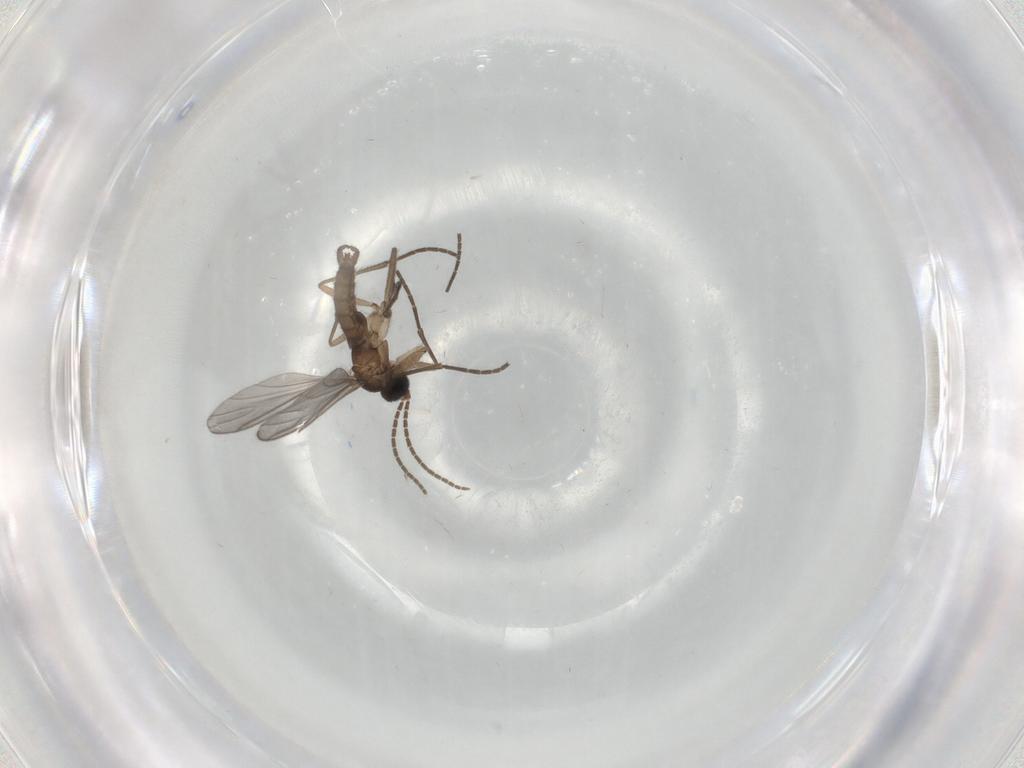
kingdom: Animalia
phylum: Arthropoda
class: Insecta
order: Diptera
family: Sciaridae
